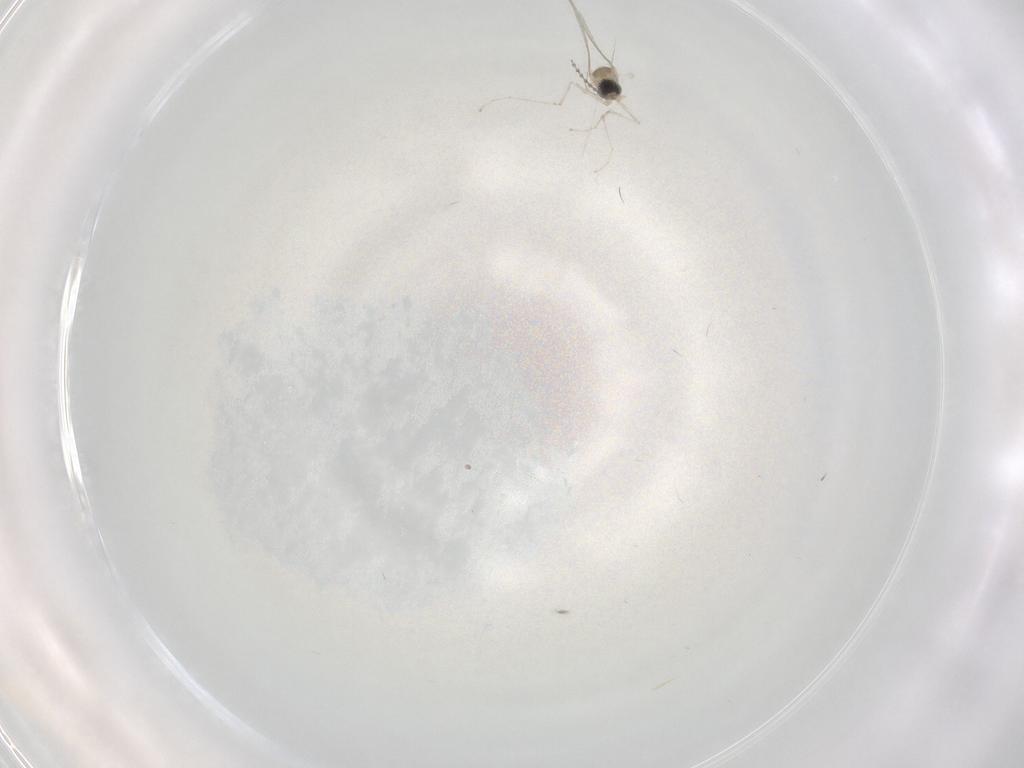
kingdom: Animalia
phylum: Arthropoda
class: Insecta
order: Diptera
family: Cecidomyiidae
